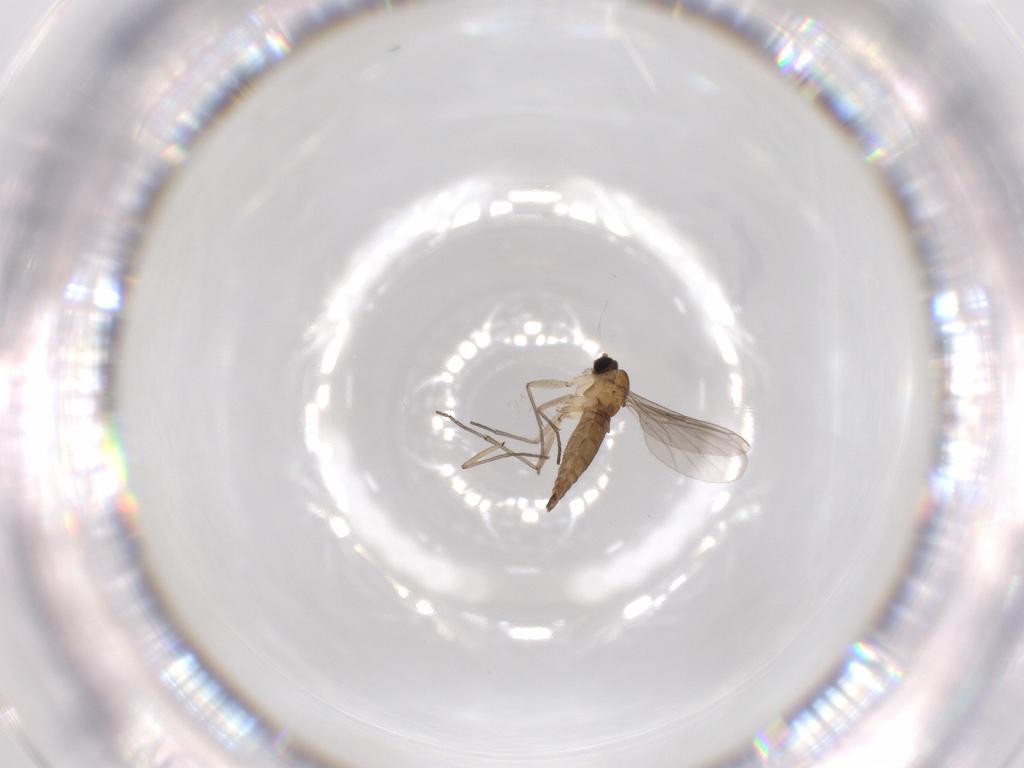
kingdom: Animalia
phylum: Arthropoda
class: Insecta
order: Diptera
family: Sciaridae
